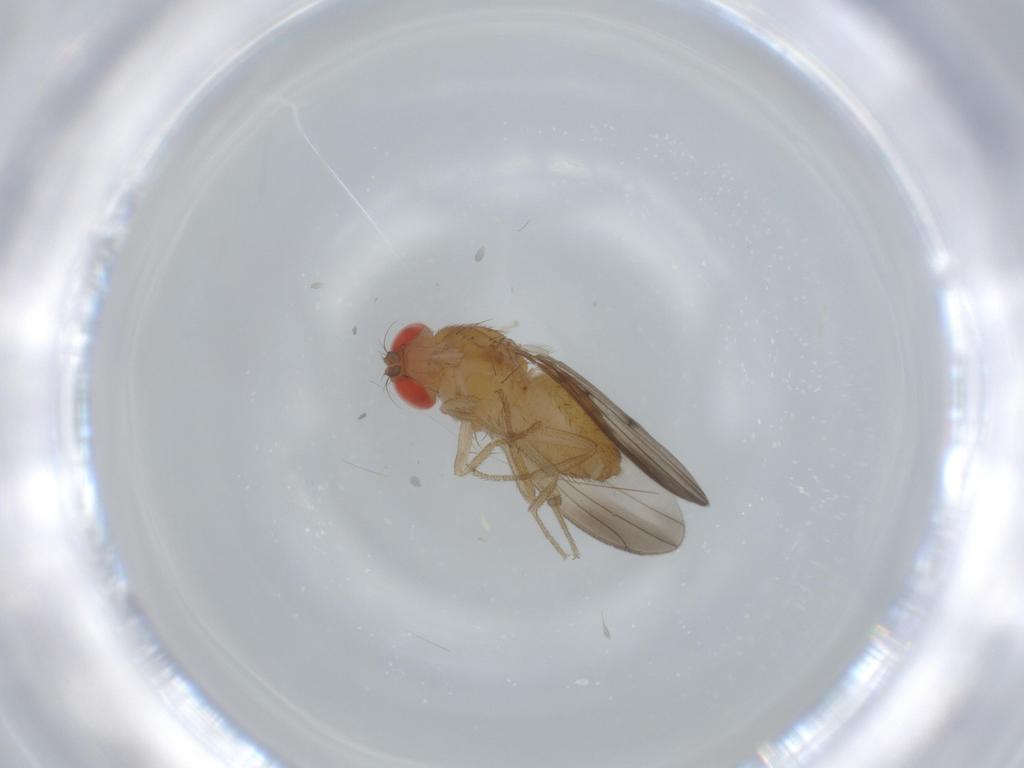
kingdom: Animalia
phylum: Arthropoda
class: Insecta
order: Diptera
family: Drosophilidae
